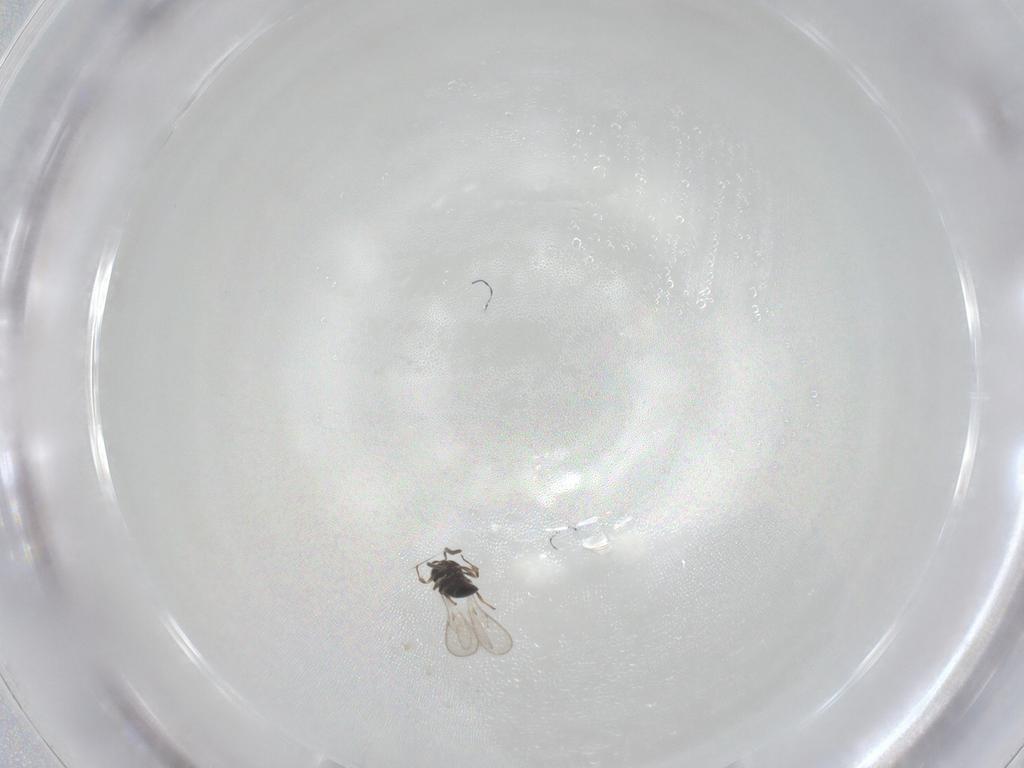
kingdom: Animalia
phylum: Arthropoda
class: Insecta
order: Hymenoptera
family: Scelionidae
